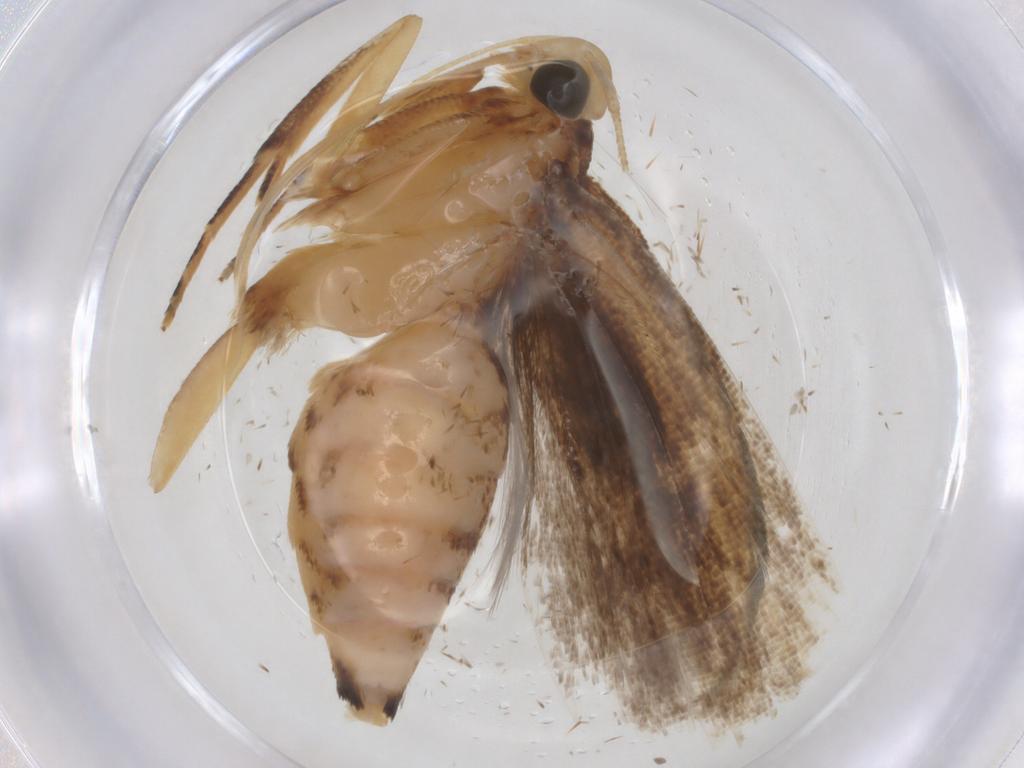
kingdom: Animalia
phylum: Arthropoda
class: Insecta
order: Lepidoptera
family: Gelechiidae
